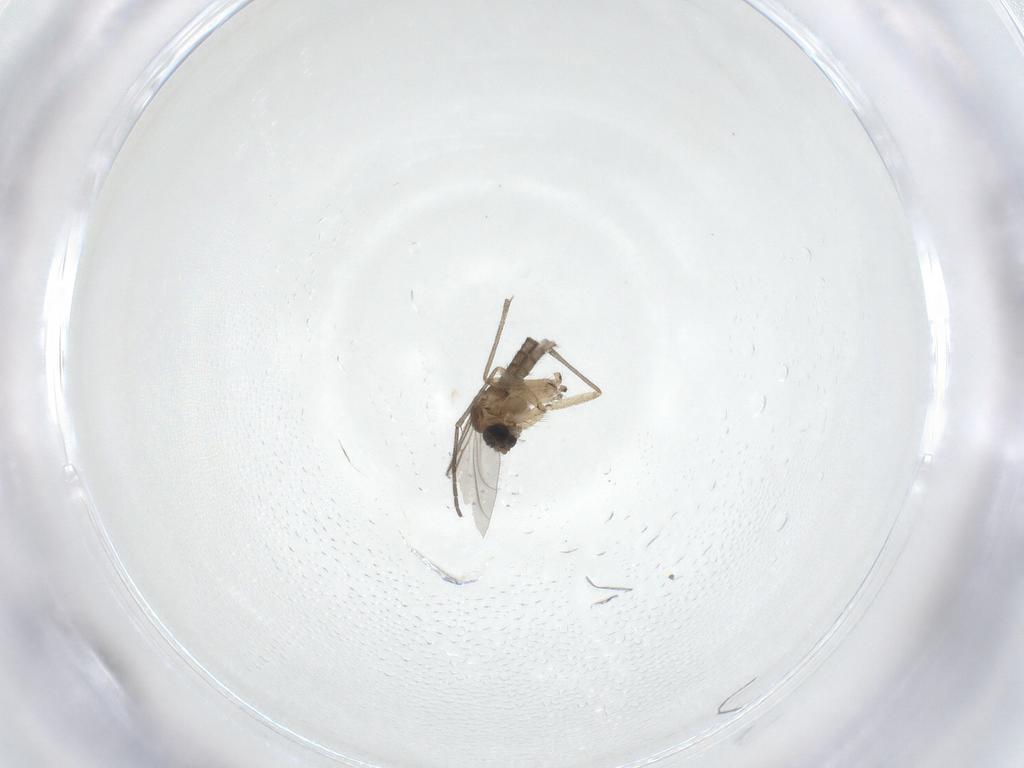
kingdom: Animalia
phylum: Arthropoda
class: Insecta
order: Diptera
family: Sciaridae
